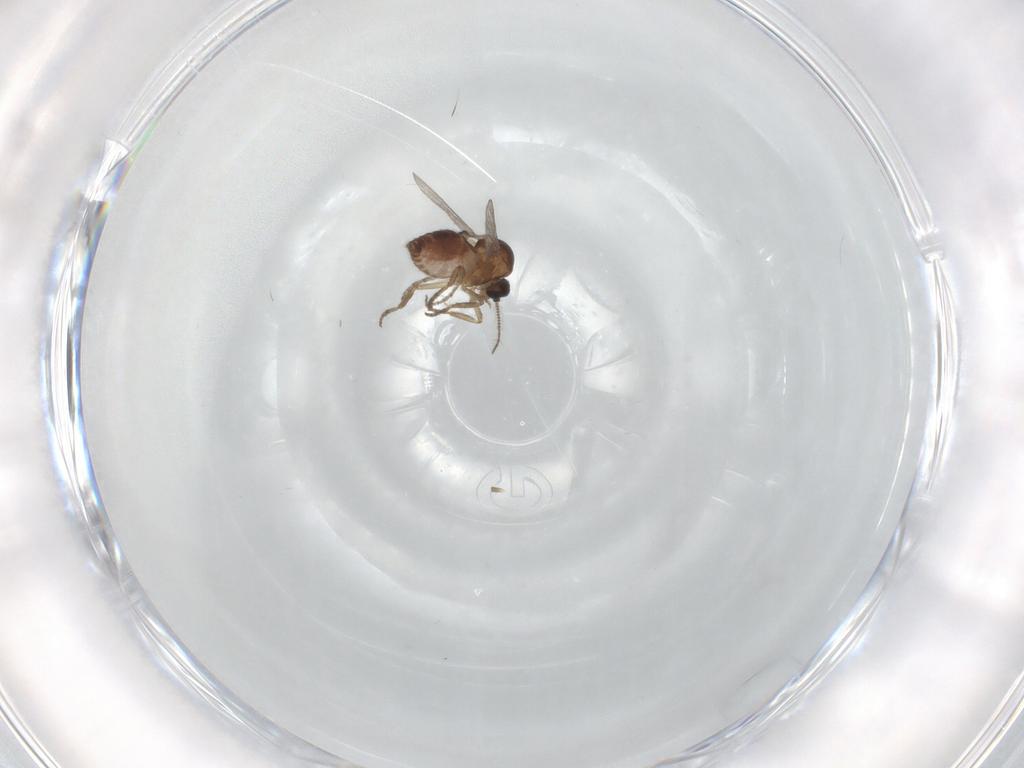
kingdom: Animalia
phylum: Arthropoda
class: Insecta
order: Diptera
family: Chironomidae
